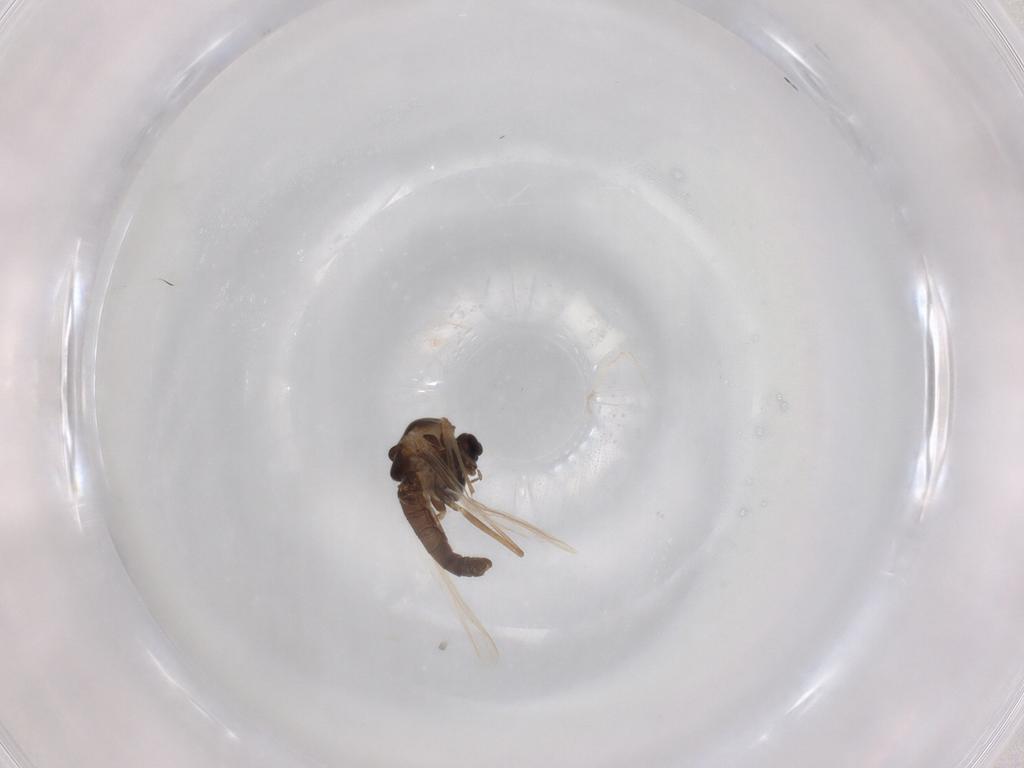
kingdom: Animalia
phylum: Arthropoda
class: Insecta
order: Diptera
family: Chironomidae
